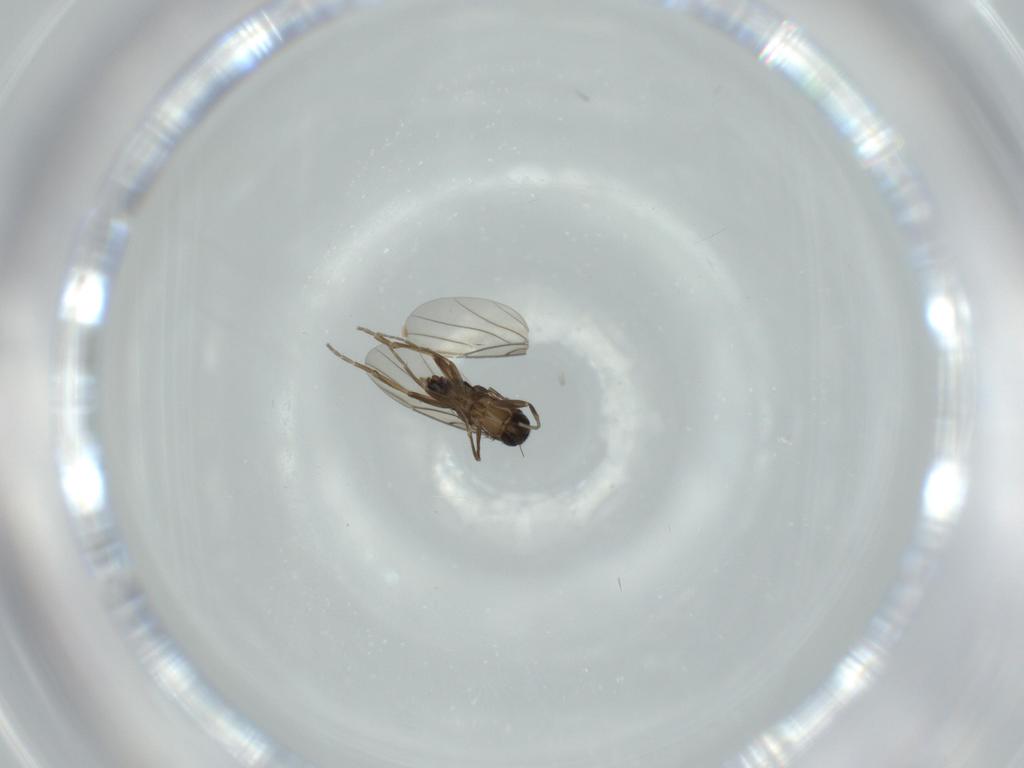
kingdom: Animalia
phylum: Arthropoda
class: Insecta
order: Diptera
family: Phoridae
